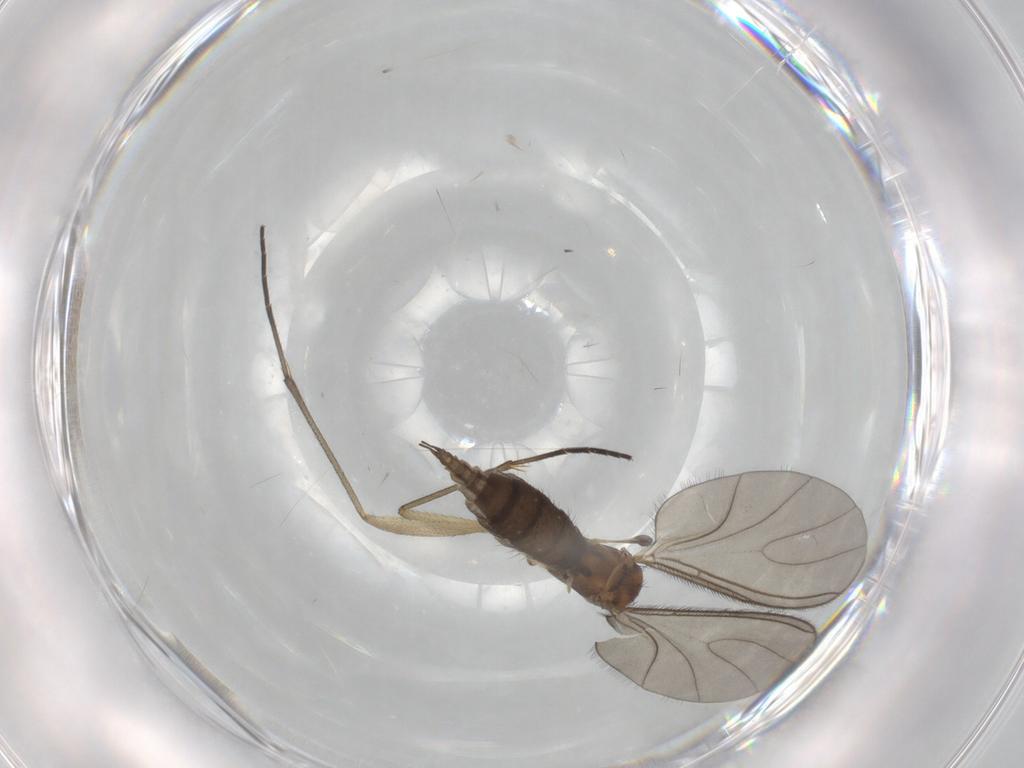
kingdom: Animalia
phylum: Arthropoda
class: Insecta
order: Diptera
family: Sciaridae
